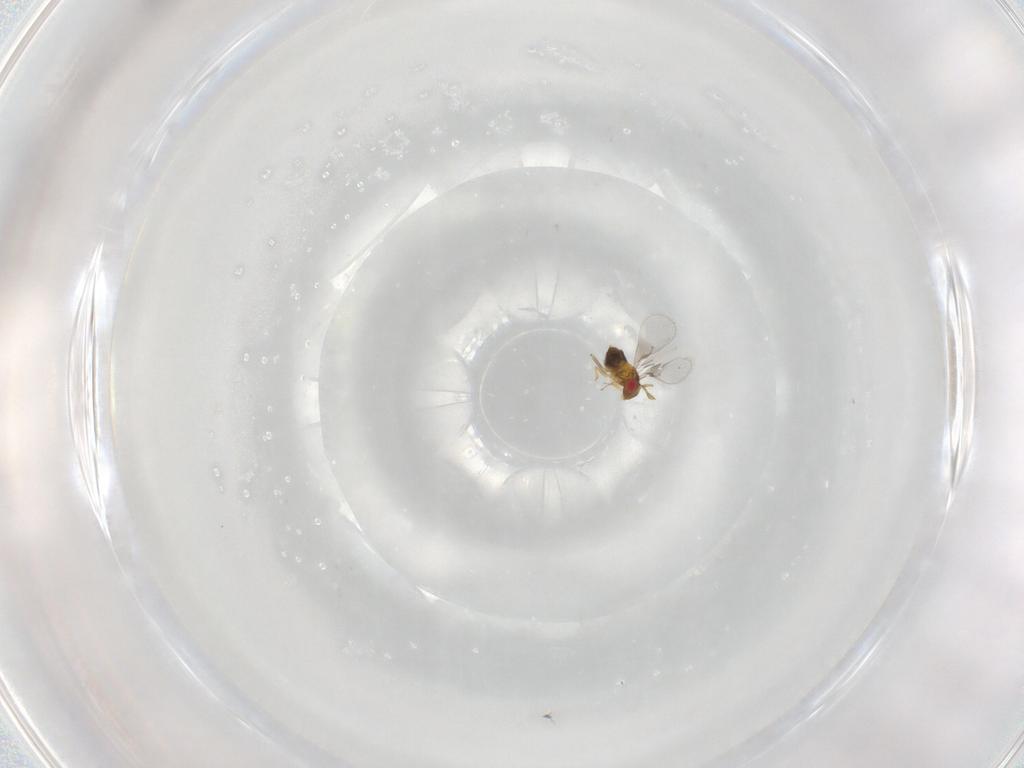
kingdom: Animalia
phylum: Arthropoda
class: Insecta
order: Hymenoptera
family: Trichogrammatidae
